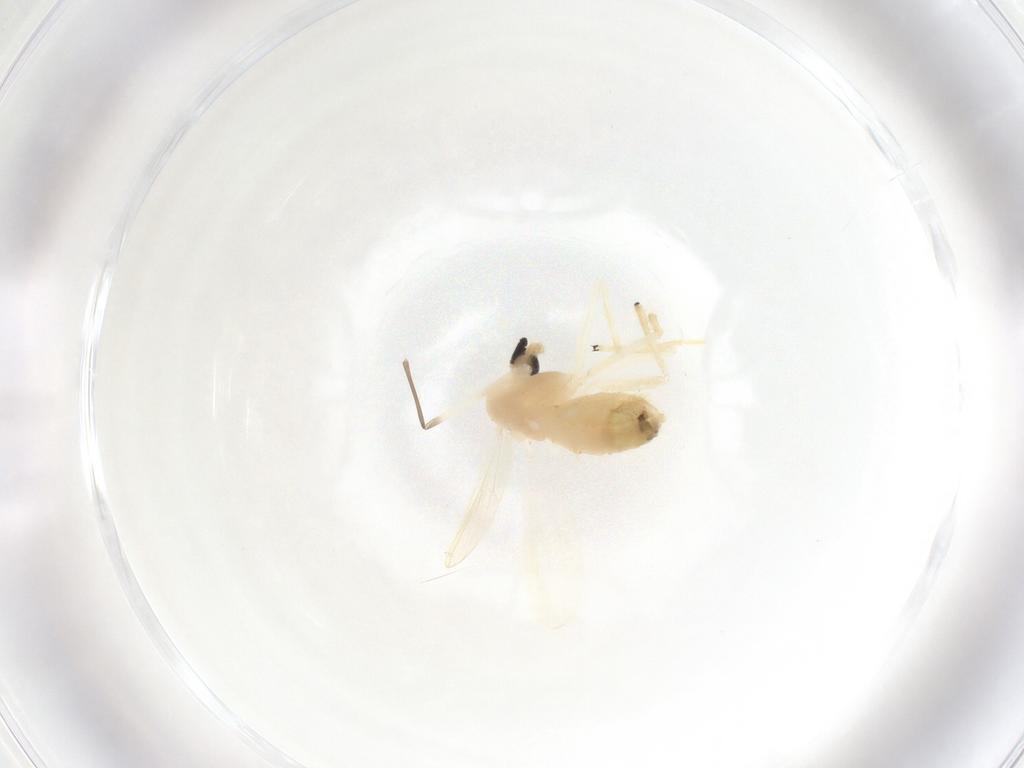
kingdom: Animalia
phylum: Arthropoda
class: Insecta
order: Diptera
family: Chironomidae
